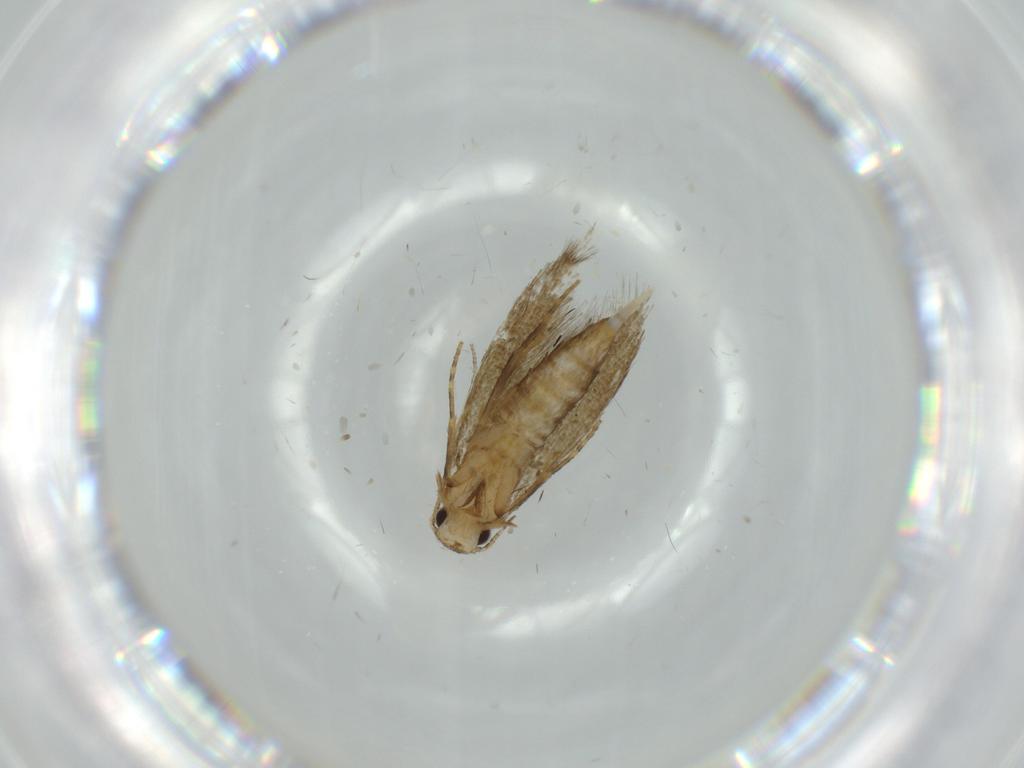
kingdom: Animalia
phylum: Arthropoda
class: Insecta
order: Lepidoptera
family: Tineidae
